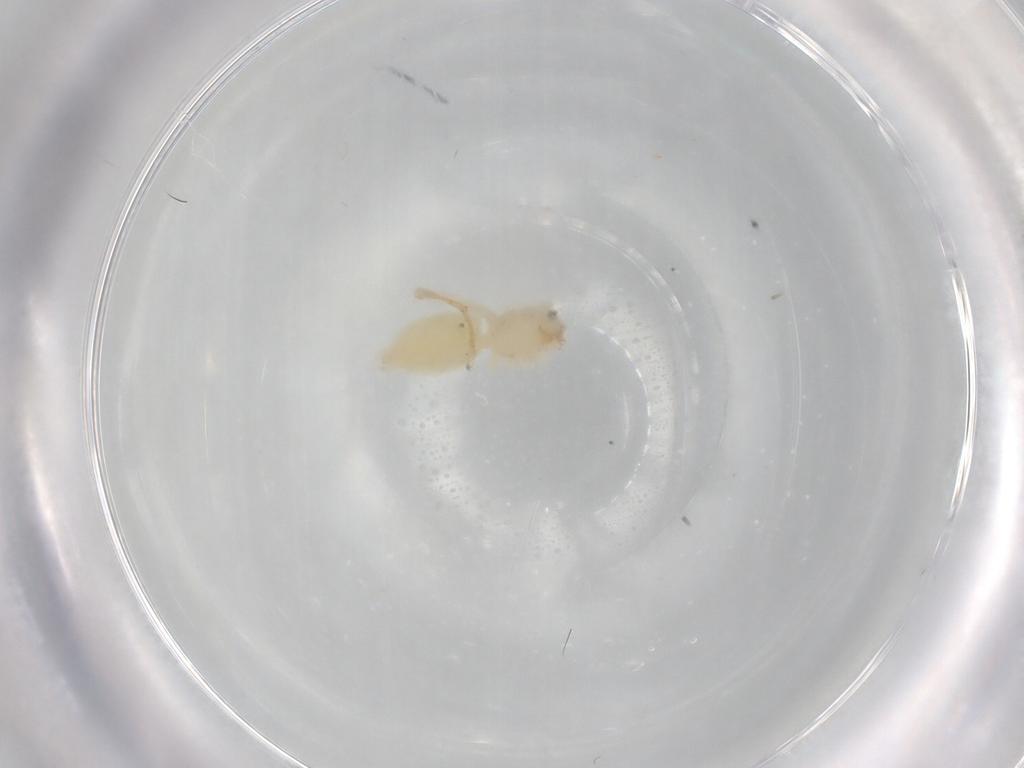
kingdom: Animalia
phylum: Arthropoda
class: Arachnida
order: Araneae
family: Anyphaenidae
